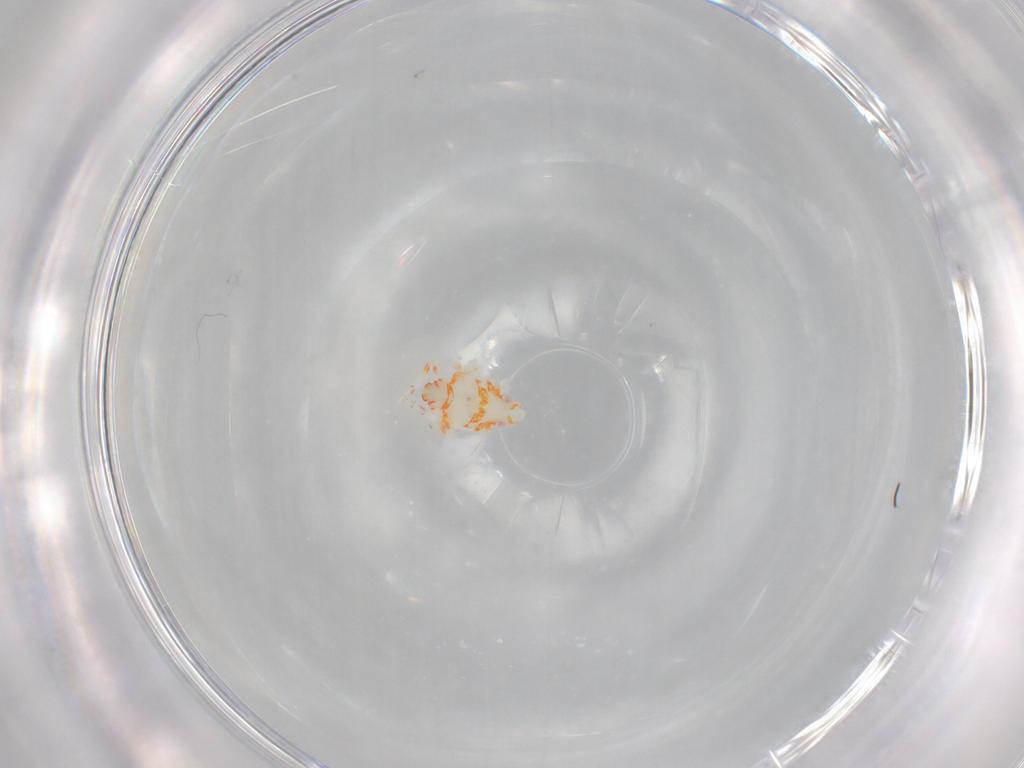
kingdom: Animalia
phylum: Arthropoda
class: Insecta
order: Hemiptera
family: Tropiduchidae
